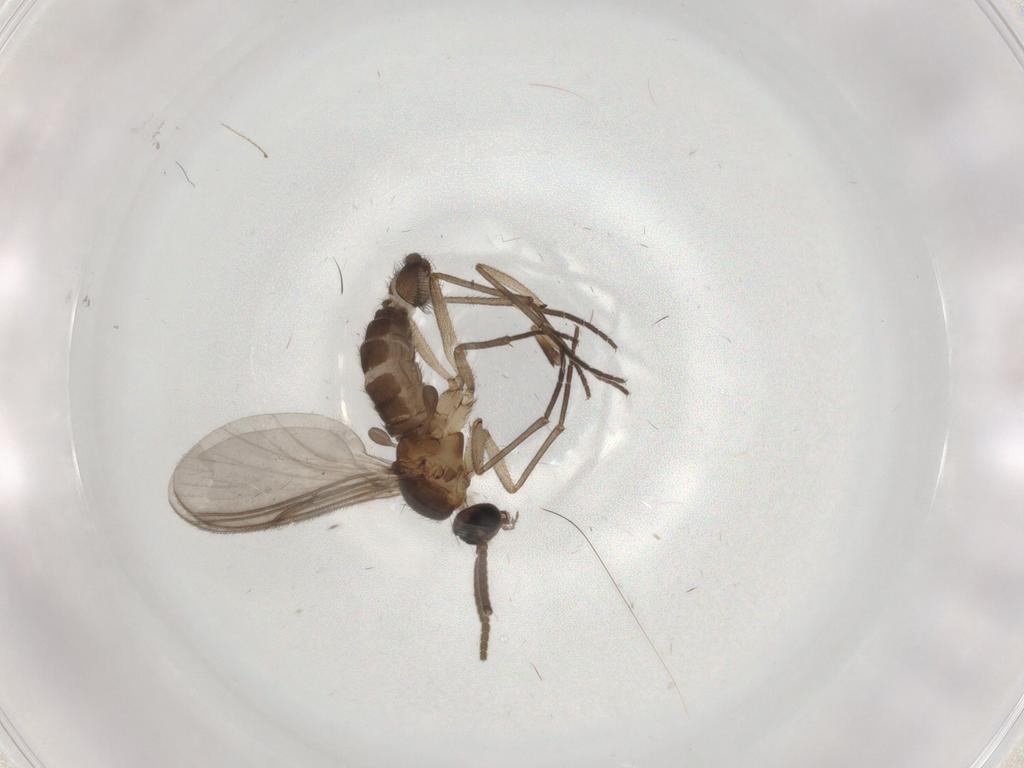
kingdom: Animalia
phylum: Arthropoda
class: Insecta
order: Diptera
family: Dolichopodidae
